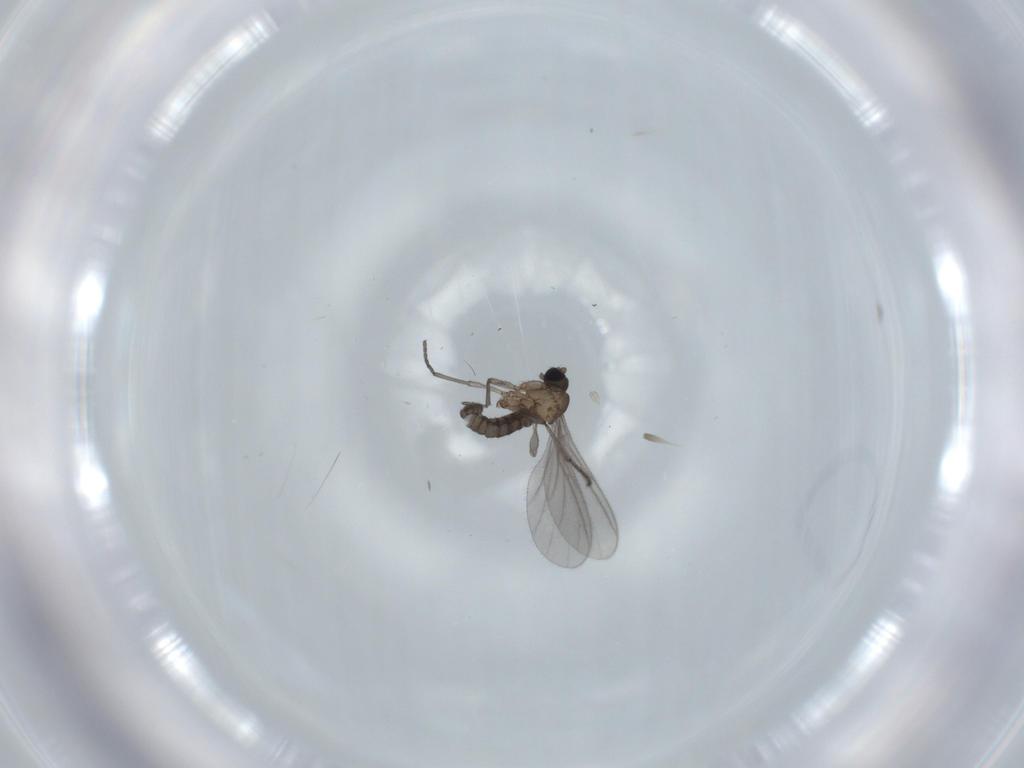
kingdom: Animalia
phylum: Arthropoda
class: Insecta
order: Diptera
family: Sciaridae
